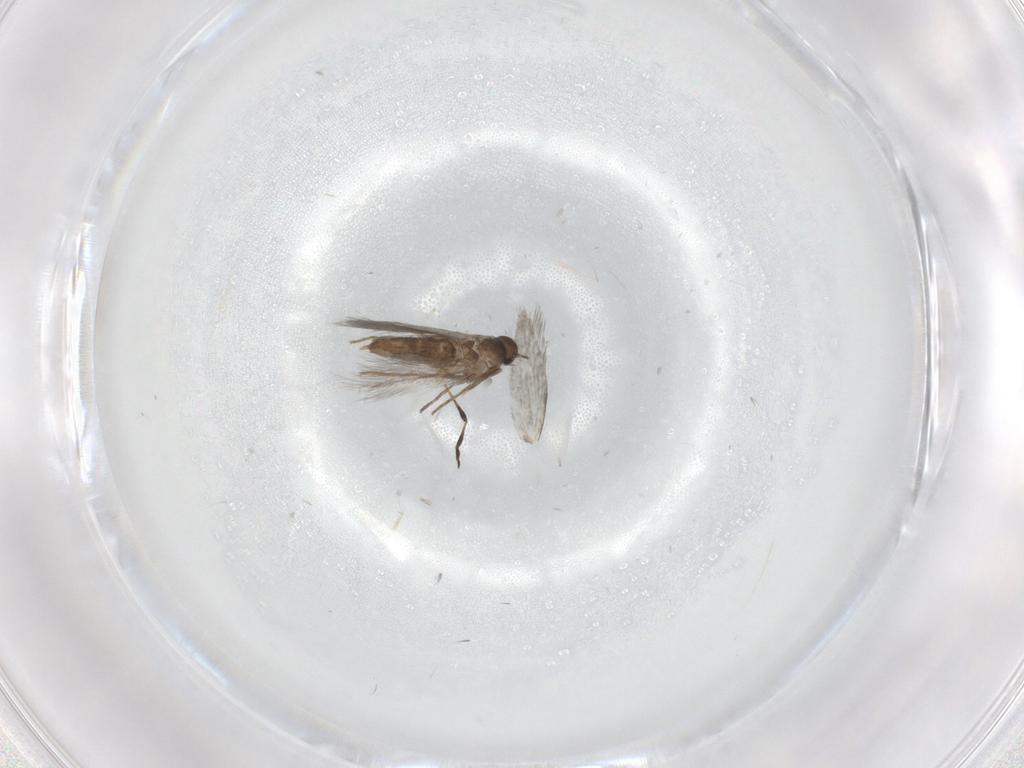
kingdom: Animalia
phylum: Arthropoda
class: Insecta
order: Lepidoptera
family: Heliozelidae
